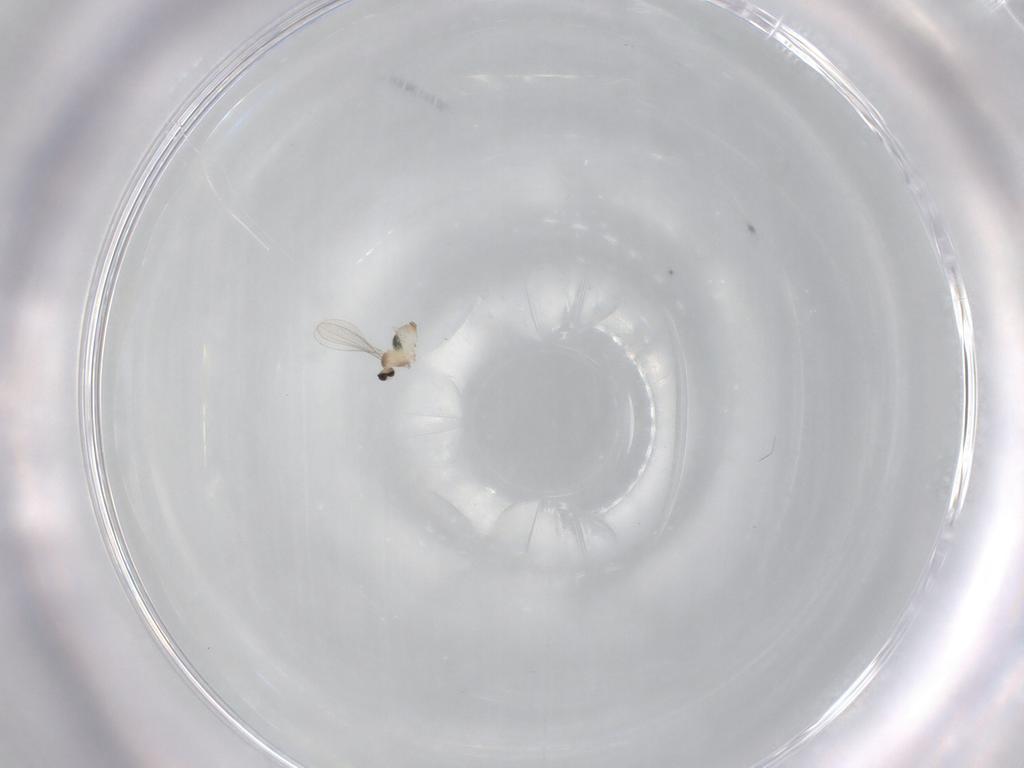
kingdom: Animalia
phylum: Arthropoda
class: Insecta
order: Diptera
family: Cecidomyiidae
